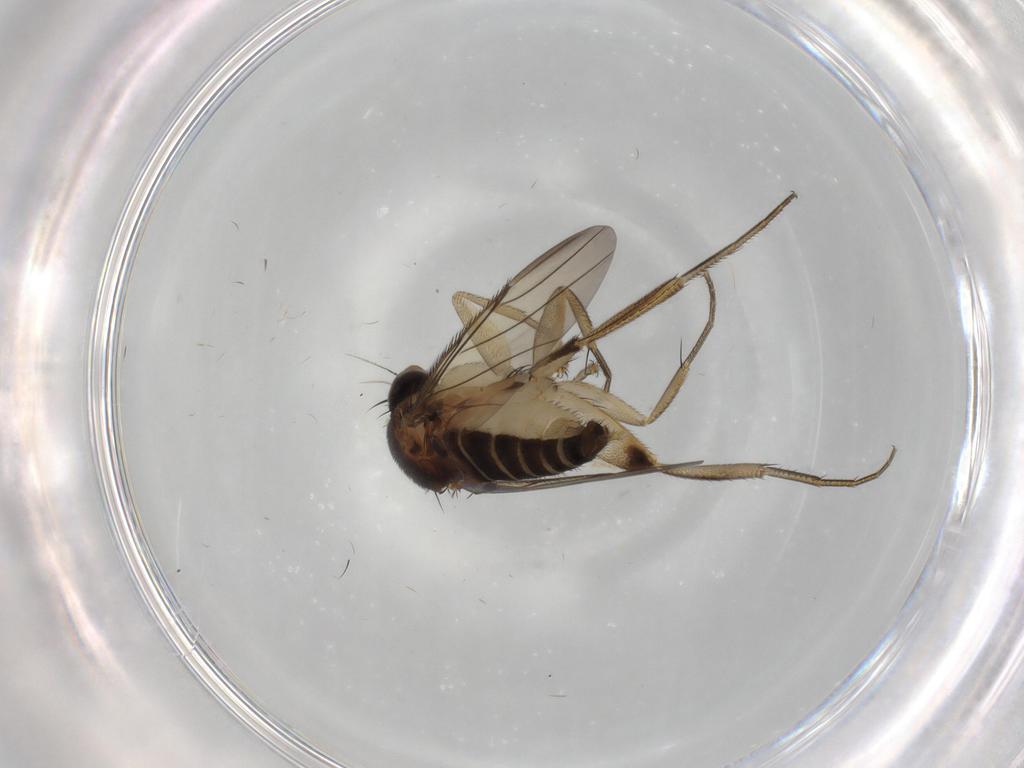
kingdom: Animalia
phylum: Arthropoda
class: Insecta
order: Diptera
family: Phoridae
